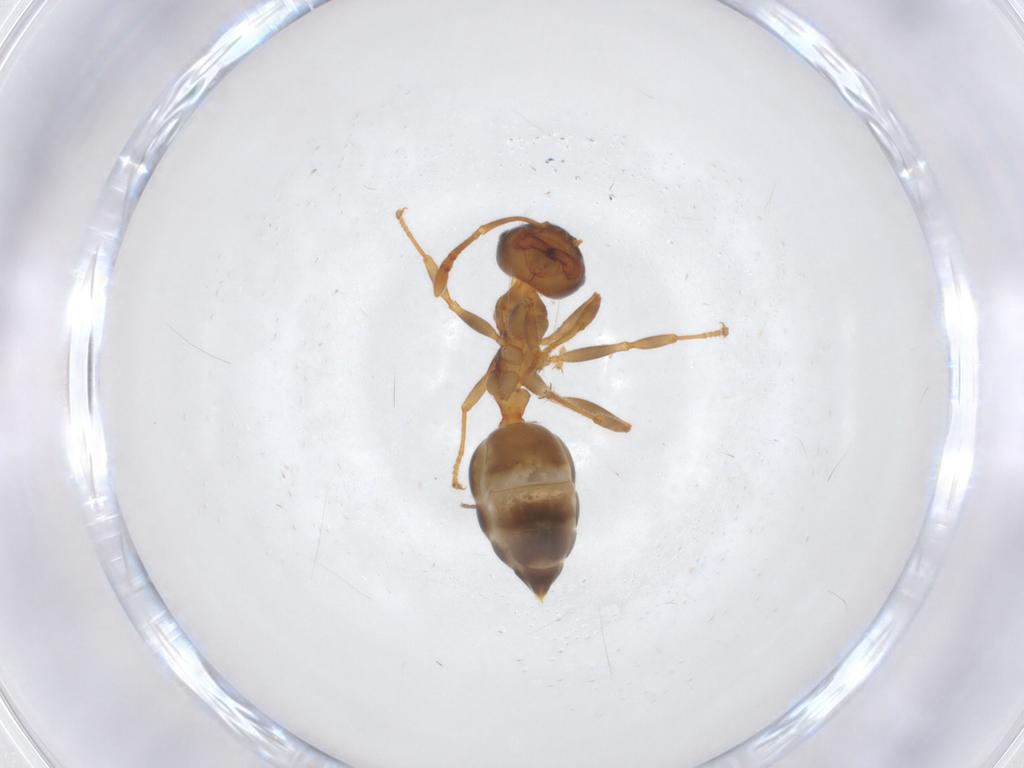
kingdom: Animalia
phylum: Arthropoda
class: Insecta
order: Hymenoptera
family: Formicidae
